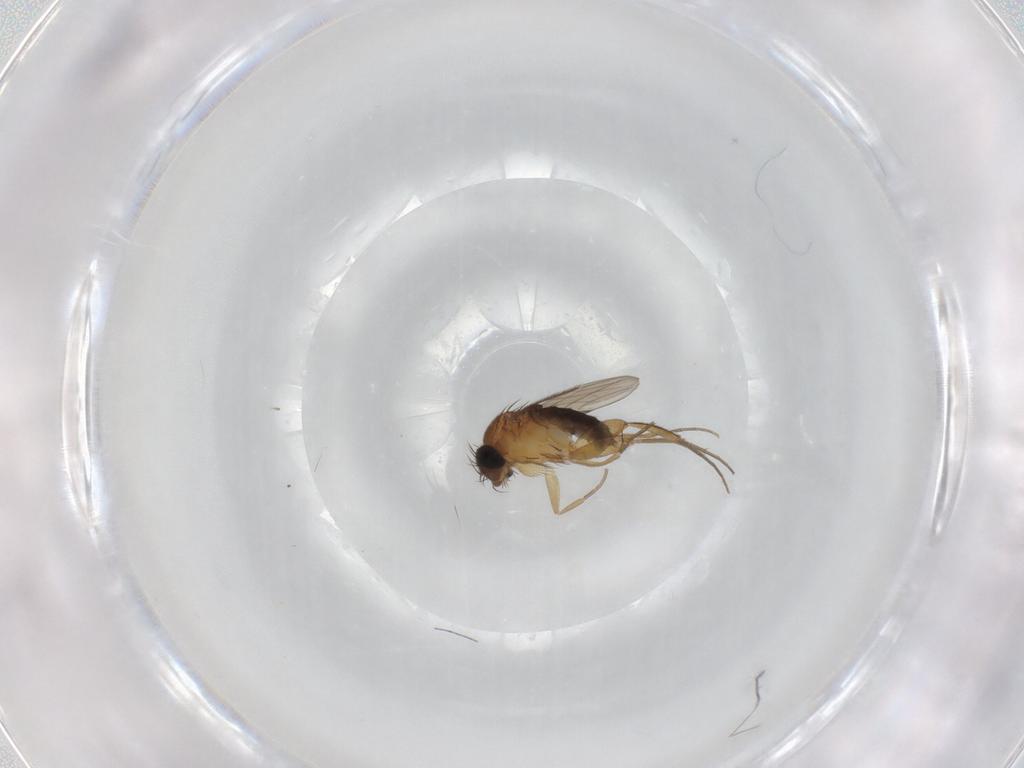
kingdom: Animalia
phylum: Arthropoda
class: Insecta
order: Diptera
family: Phoridae
